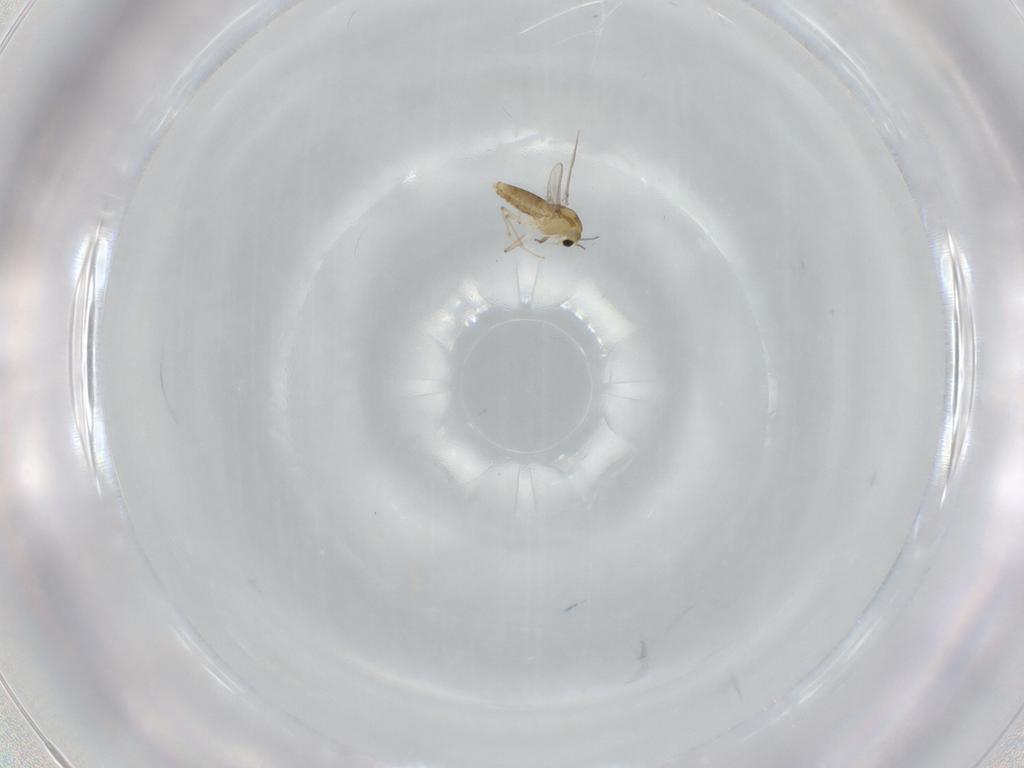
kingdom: Animalia
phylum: Arthropoda
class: Insecta
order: Diptera
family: Chironomidae
